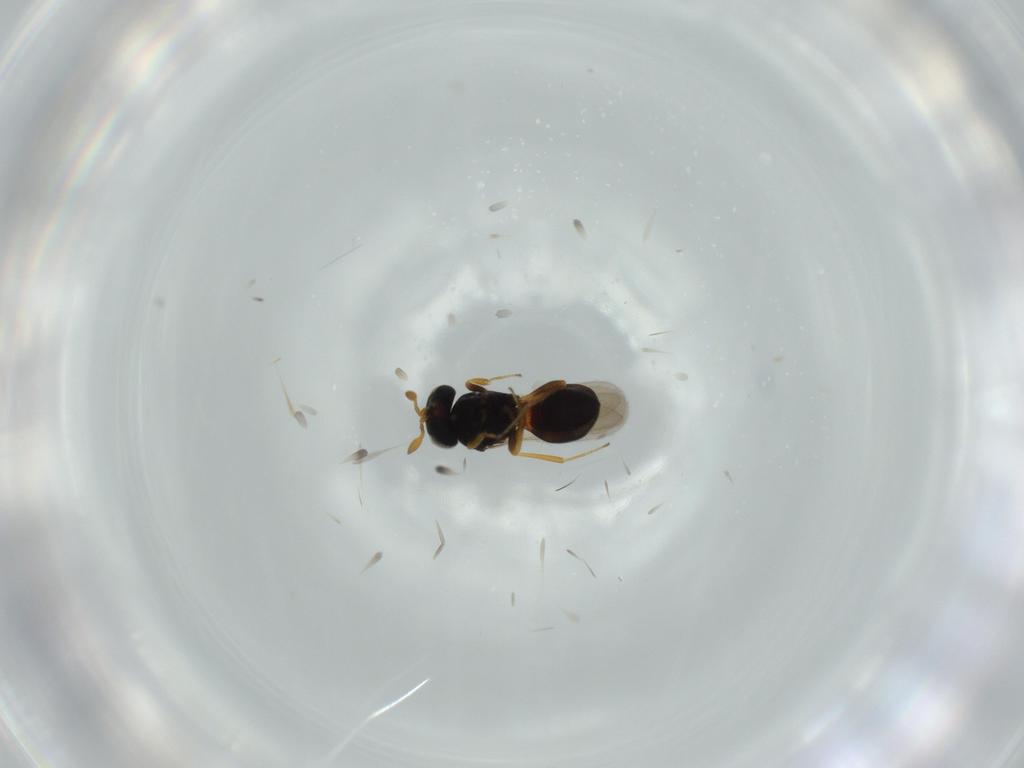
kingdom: Animalia
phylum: Arthropoda
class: Insecta
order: Hymenoptera
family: Scelionidae
